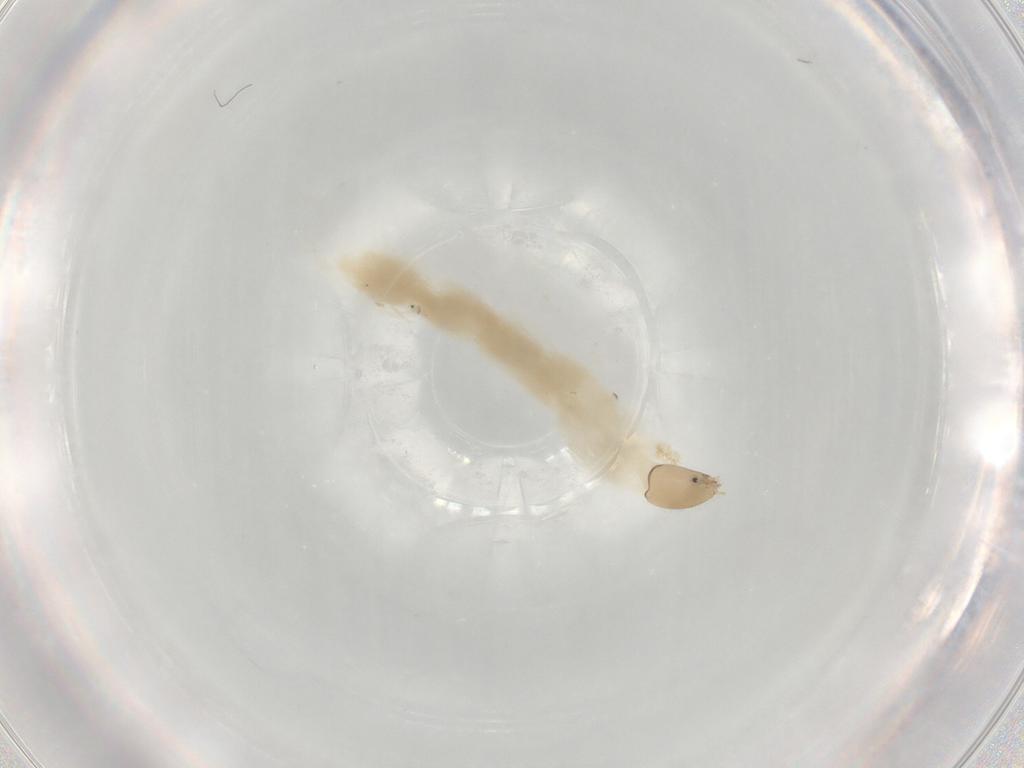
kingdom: Animalia
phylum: Arthropoda
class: Insecta
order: Diptera
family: Chironomidae
